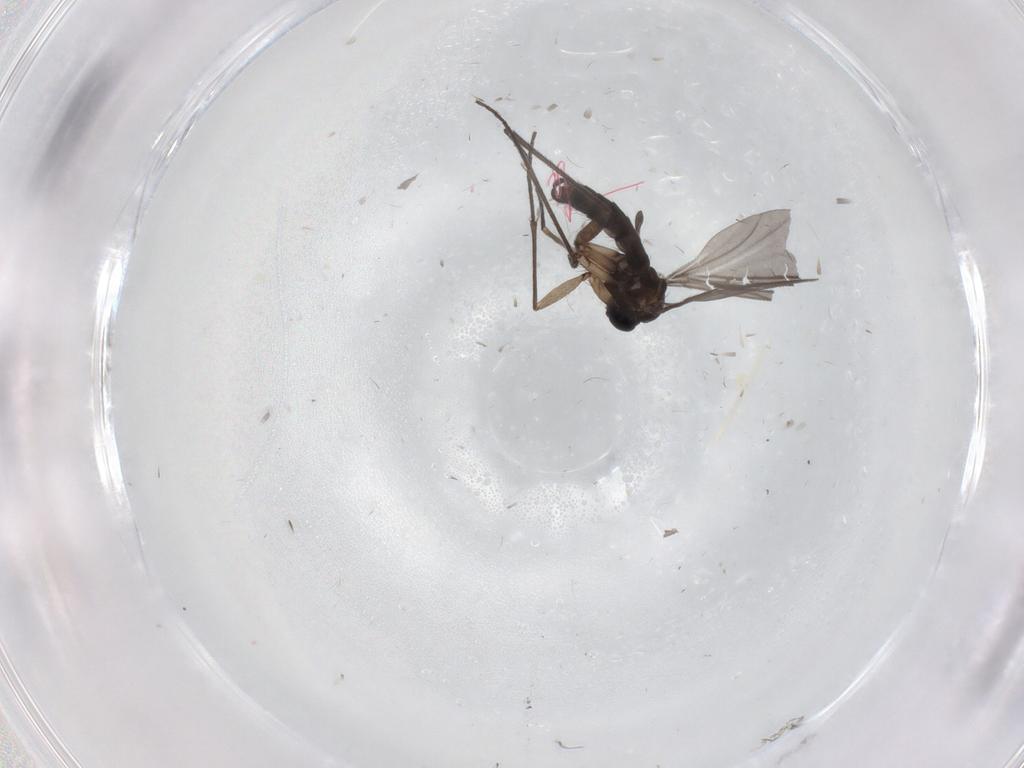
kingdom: Animalia
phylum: Arthropoda
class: Insecta
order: Diptera
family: Sciaridae
